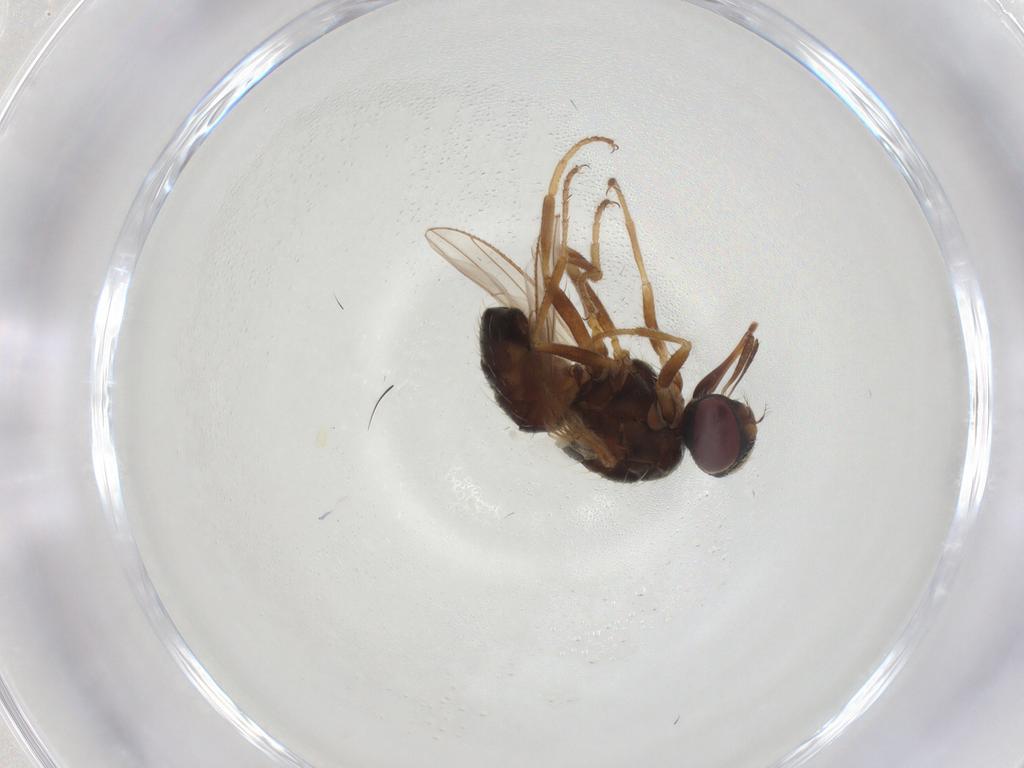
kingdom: Animalia
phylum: Arthropoda
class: Insecta
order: Diptera
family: Muscidae
